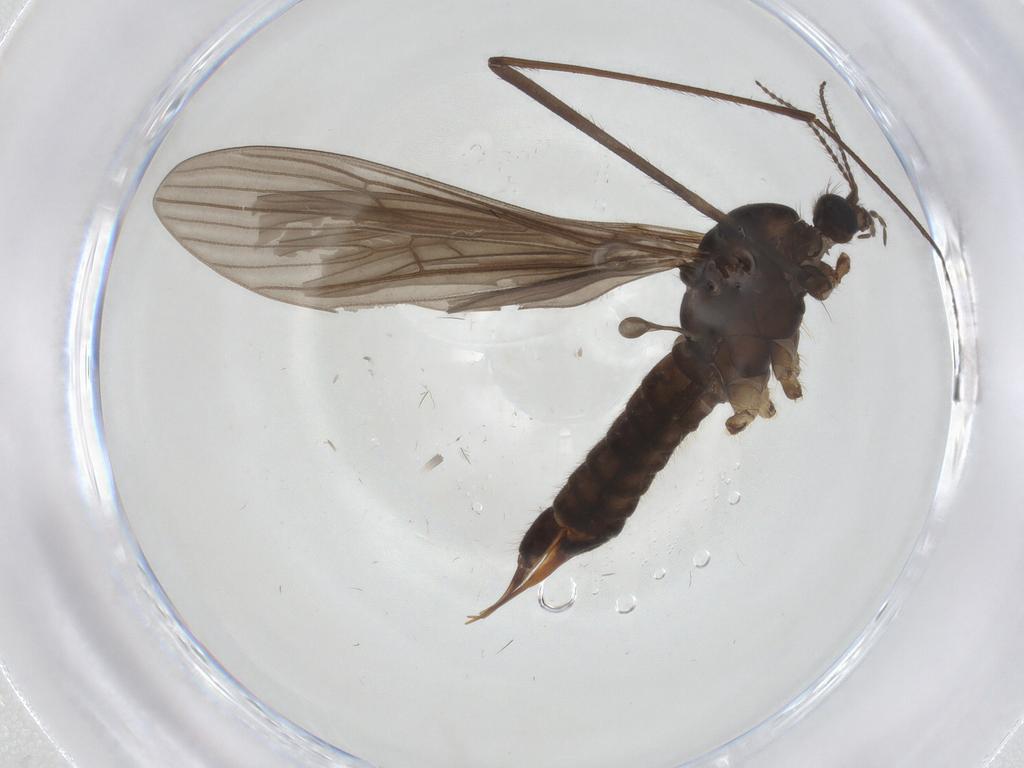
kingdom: Animalia
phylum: Arthropoda
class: Insecta
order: Diptera
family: Limoniidae
